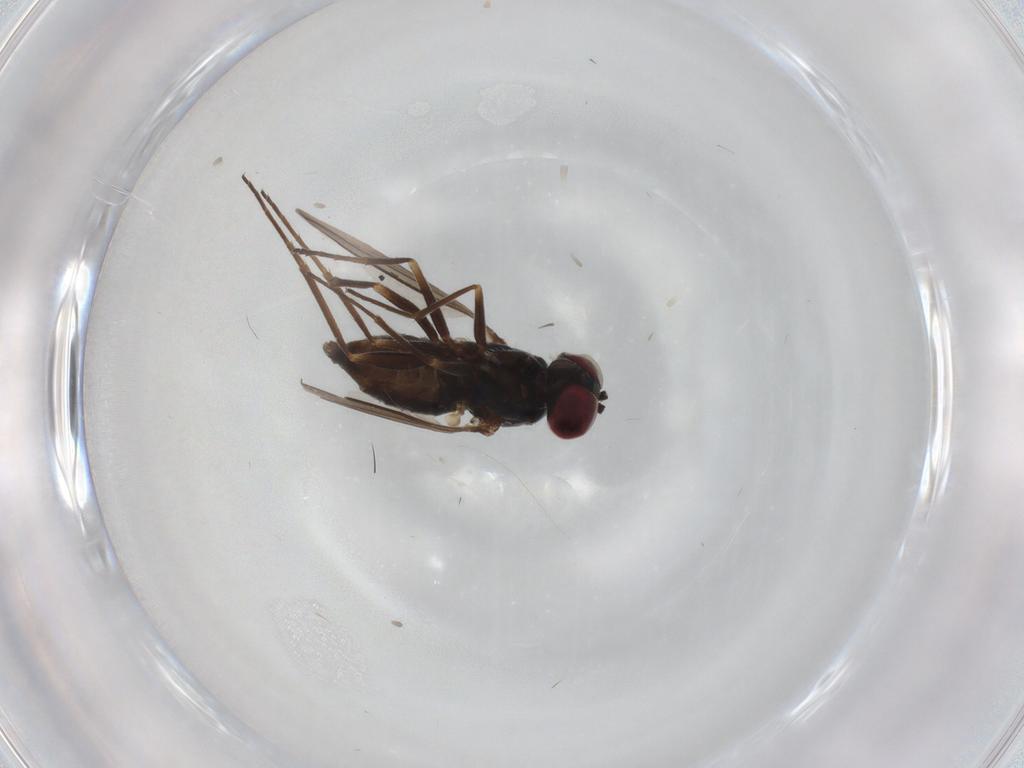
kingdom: Animalia
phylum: Arthropoda
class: Insecta
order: Diptera
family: Dolichopodidae
